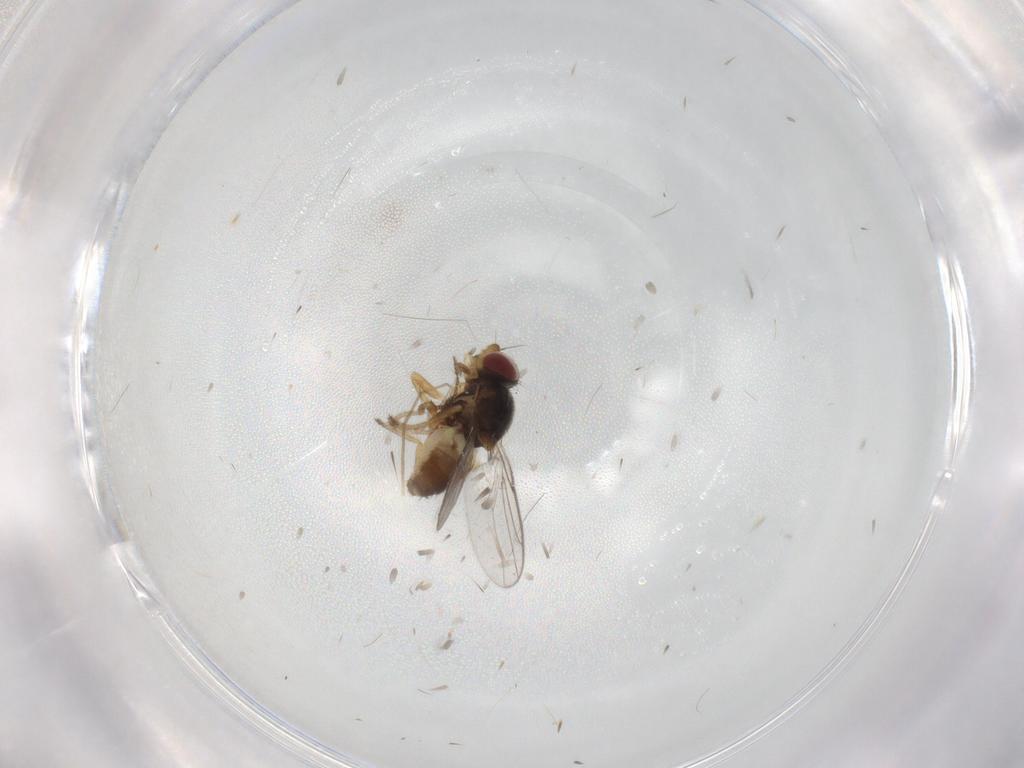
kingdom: Animalia
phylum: Arthropoda
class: Insecta
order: Diptera
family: Chloropidae
